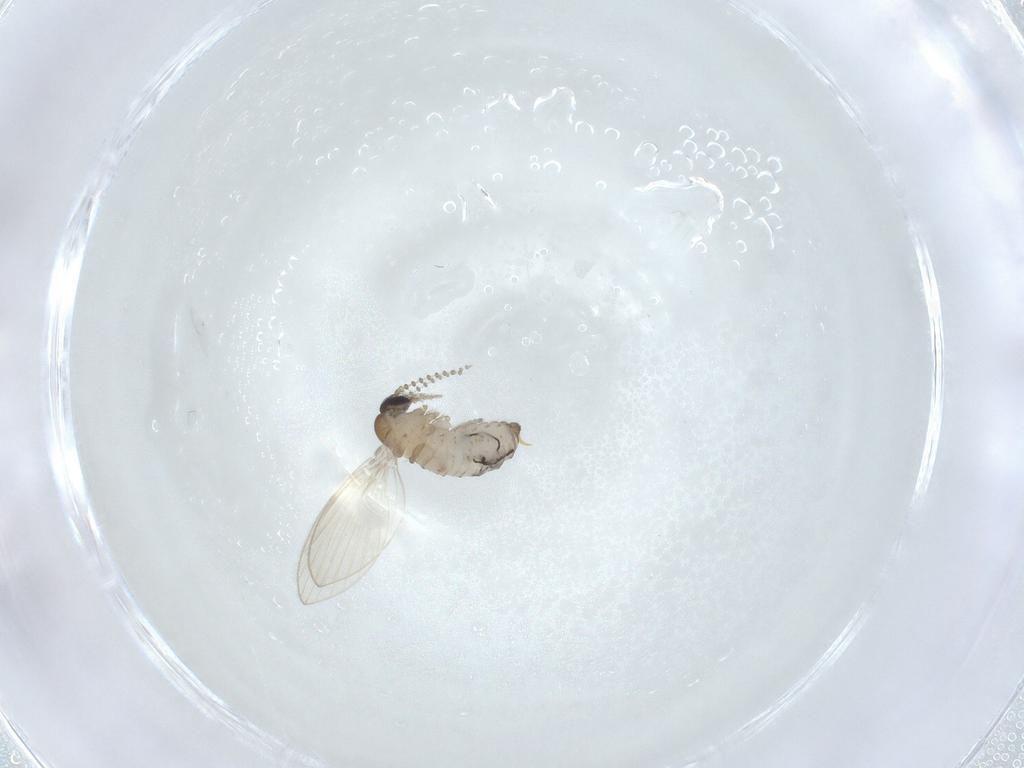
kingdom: Animalia
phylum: Arthropoda
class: Insecta
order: Diptera
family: Psychodidae
